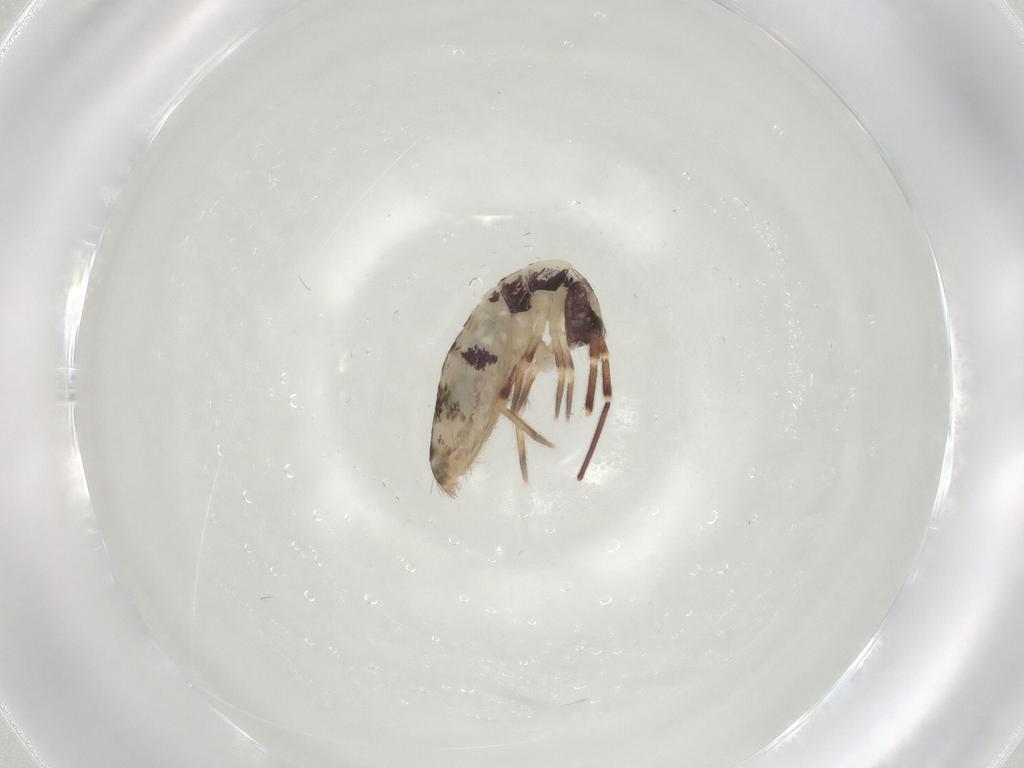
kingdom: Animalia
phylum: Arthropoda
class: Collembola
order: Entomobryomorpha
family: Entomobryidae
